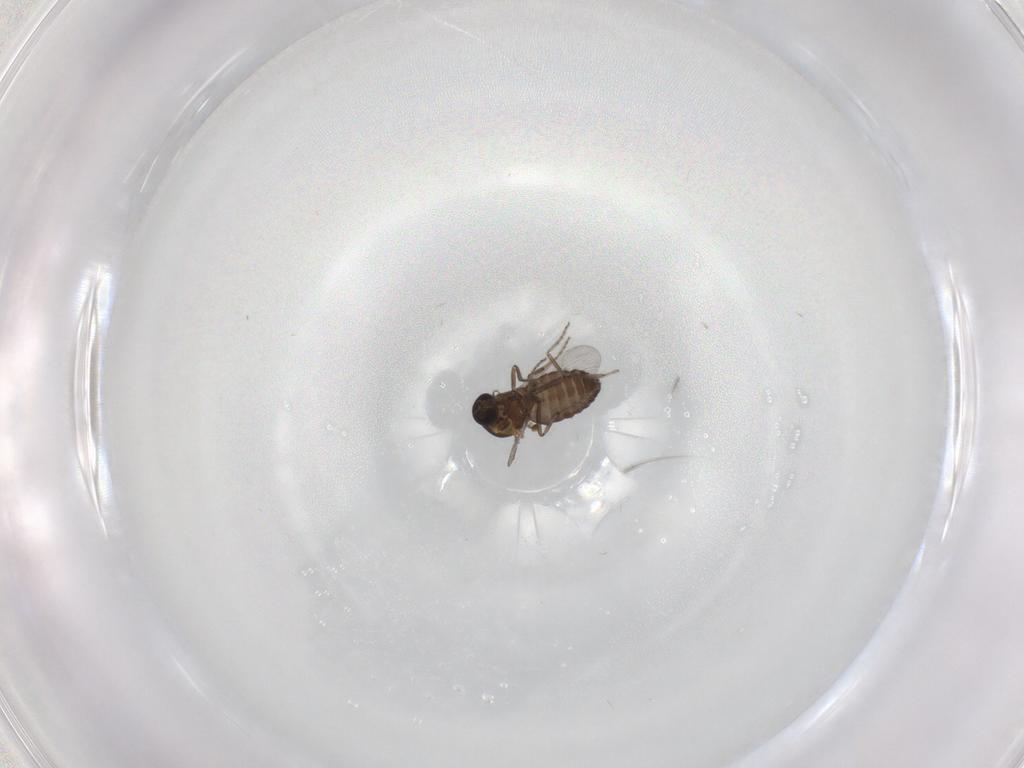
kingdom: Animalia
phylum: Arthropoda
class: Insecta
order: Diptera
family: Ceratopogonidae
